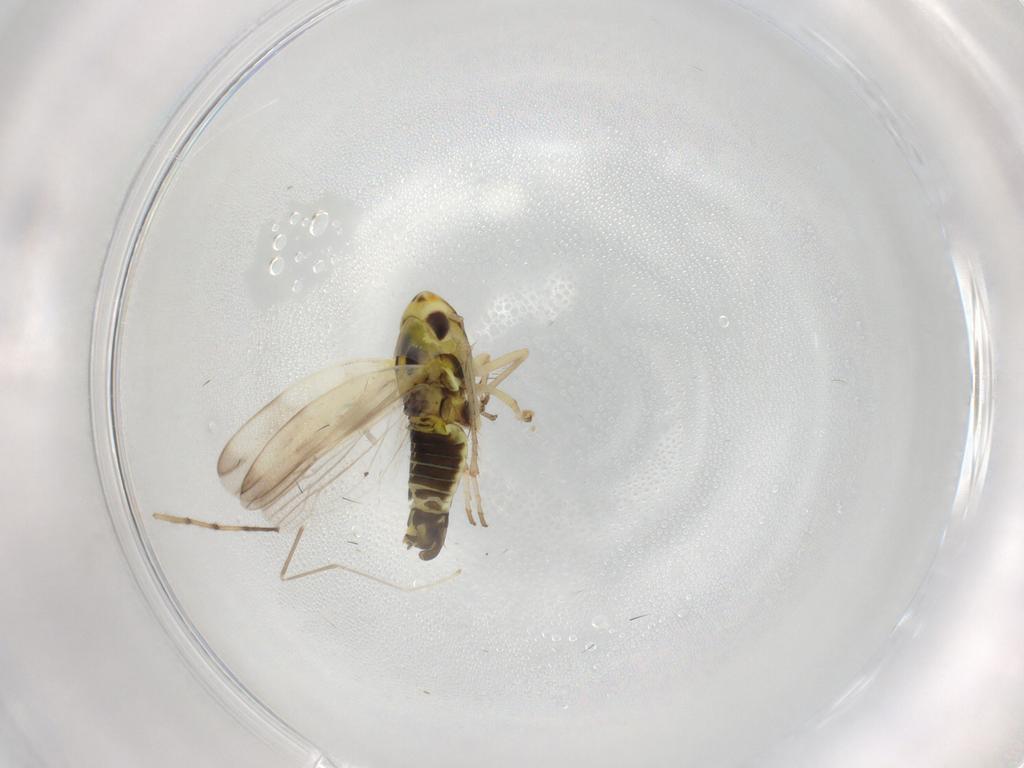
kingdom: Animalia
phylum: Arthropoda
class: Insecta
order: Hemiptera
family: Cicadellidae
